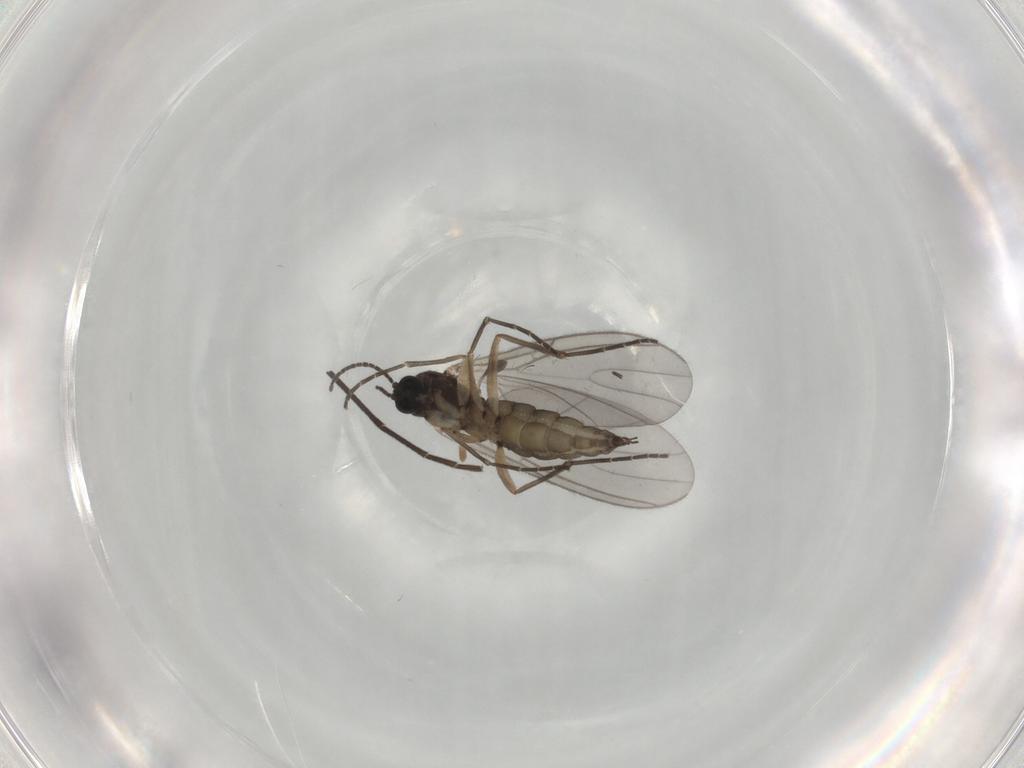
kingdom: Animalia
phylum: Arthropoda
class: Insecta
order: Diptera
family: Sciaridae
